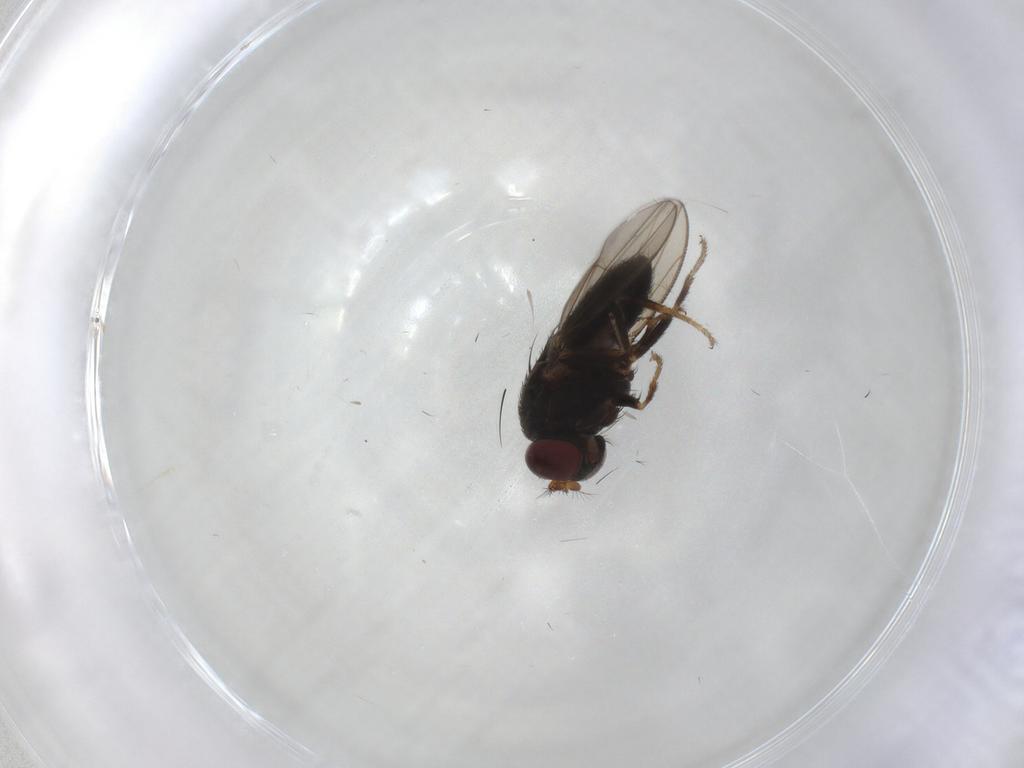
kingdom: Animalia
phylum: Arthropoda
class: Insecta
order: Diptera
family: Ephydridae
